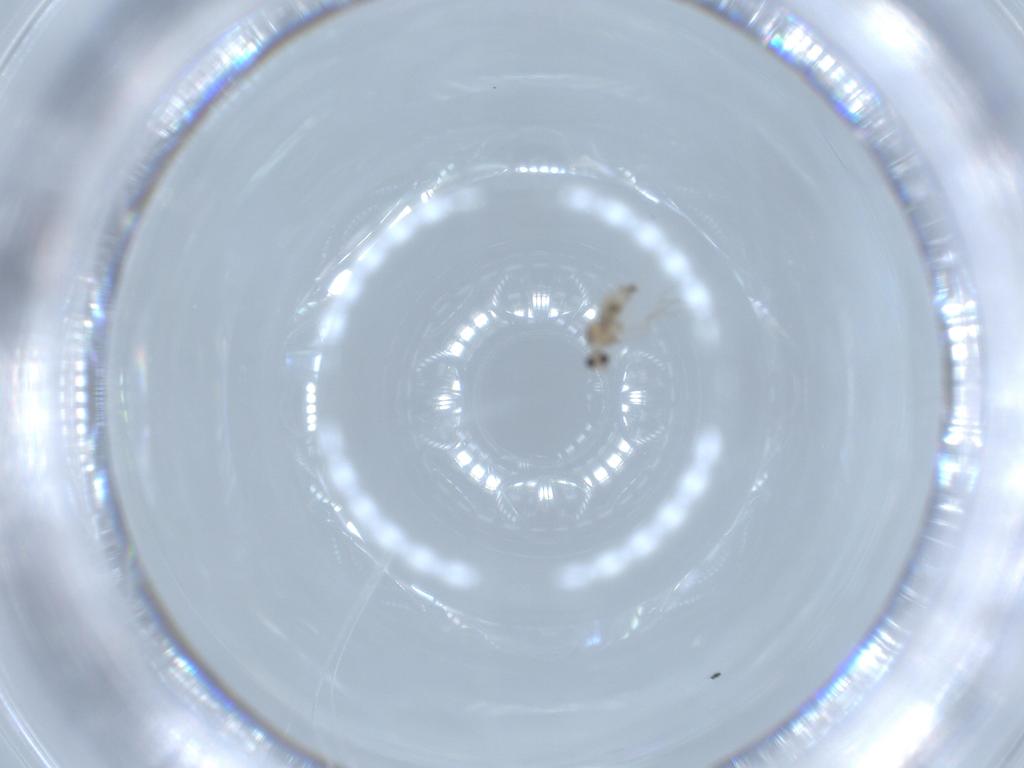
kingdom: Animalia
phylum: Arthropoda
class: Insecta
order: Diptera
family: Cecidomyiidae
